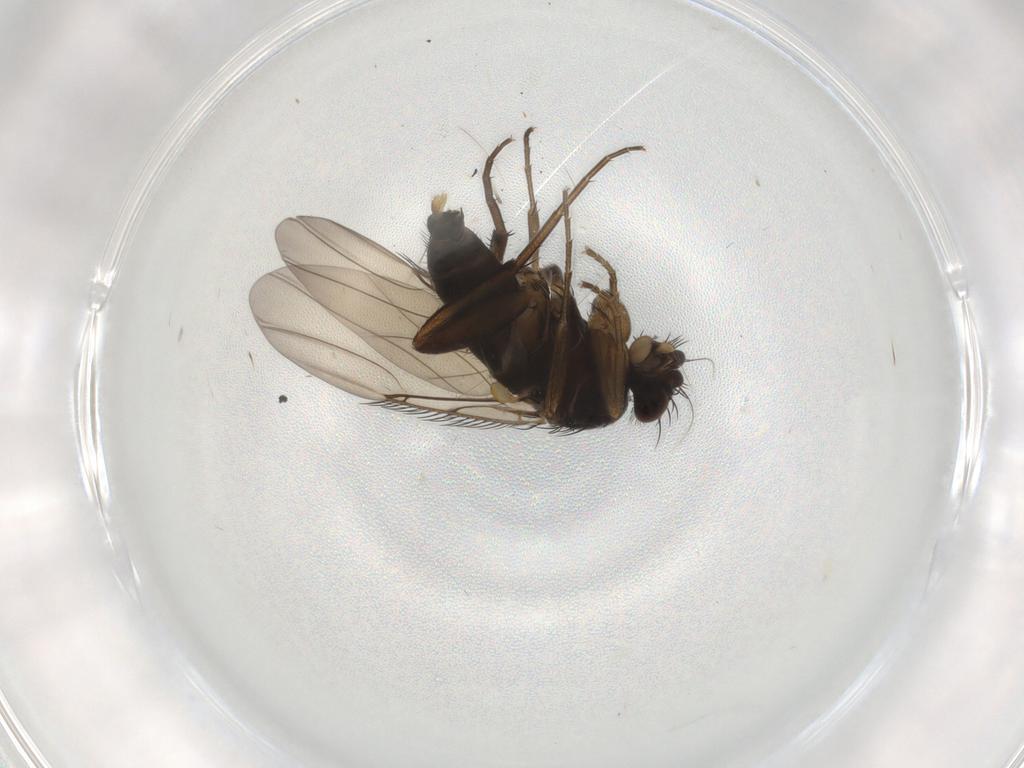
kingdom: Animalia
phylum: Arthropoda
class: Insecta
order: Diptera
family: Phoridae
